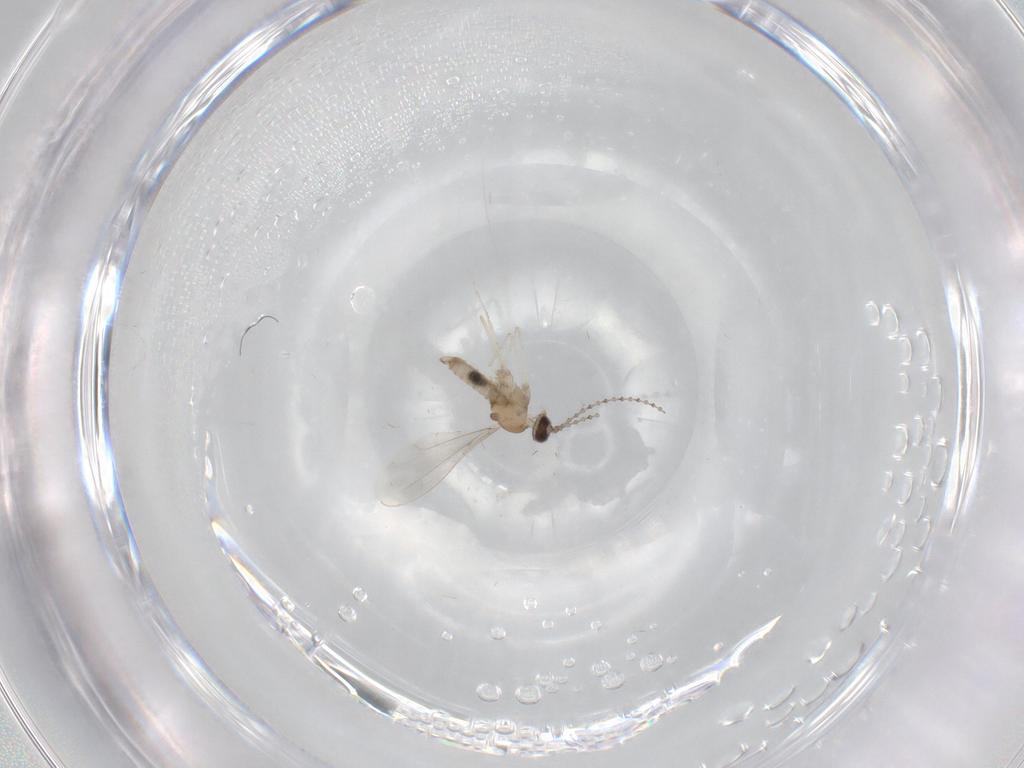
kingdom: Animalia
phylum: Arthropoda
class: Insecta
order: Diptera
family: Cecidomyiidae
